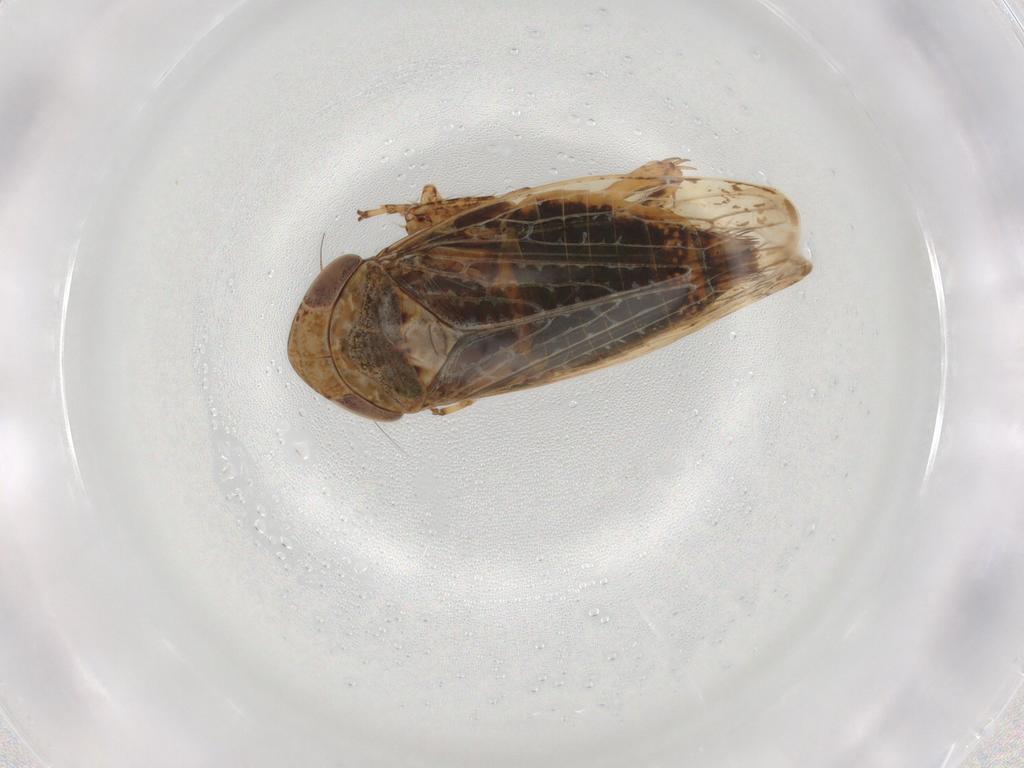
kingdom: Animalia
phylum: Arthropoda
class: Insecta
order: Hemiptera
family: Cicadellidae
